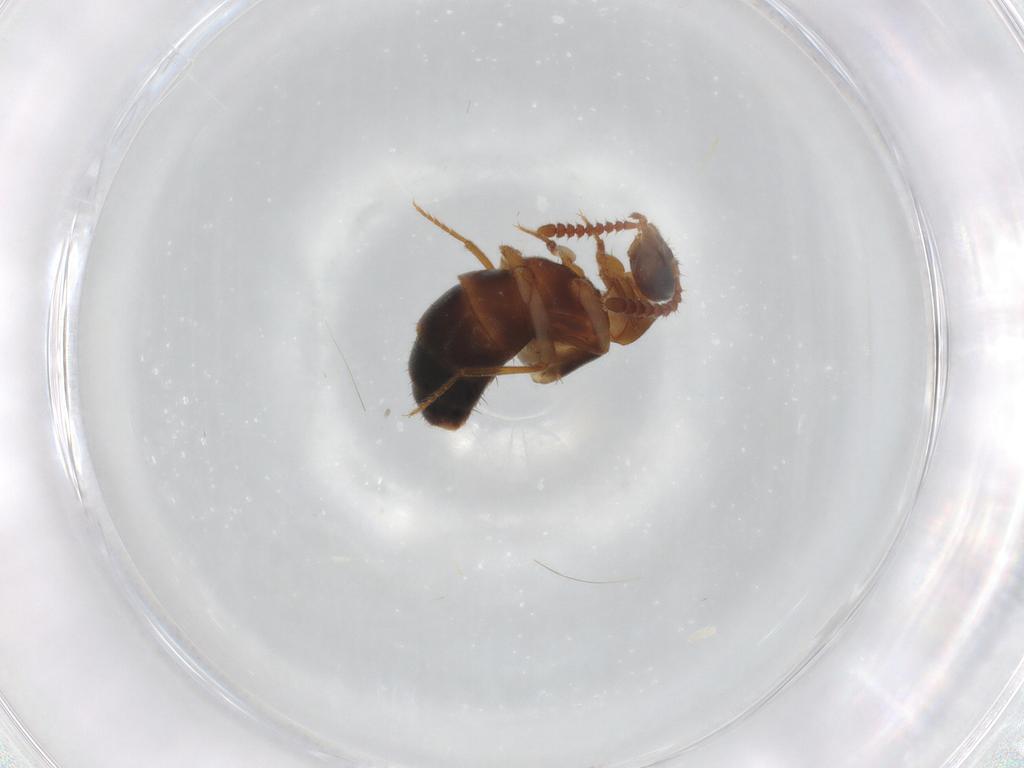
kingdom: Animalia
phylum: Arthropoda
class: Insecta
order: Coleoptera
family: Staphylinidae
